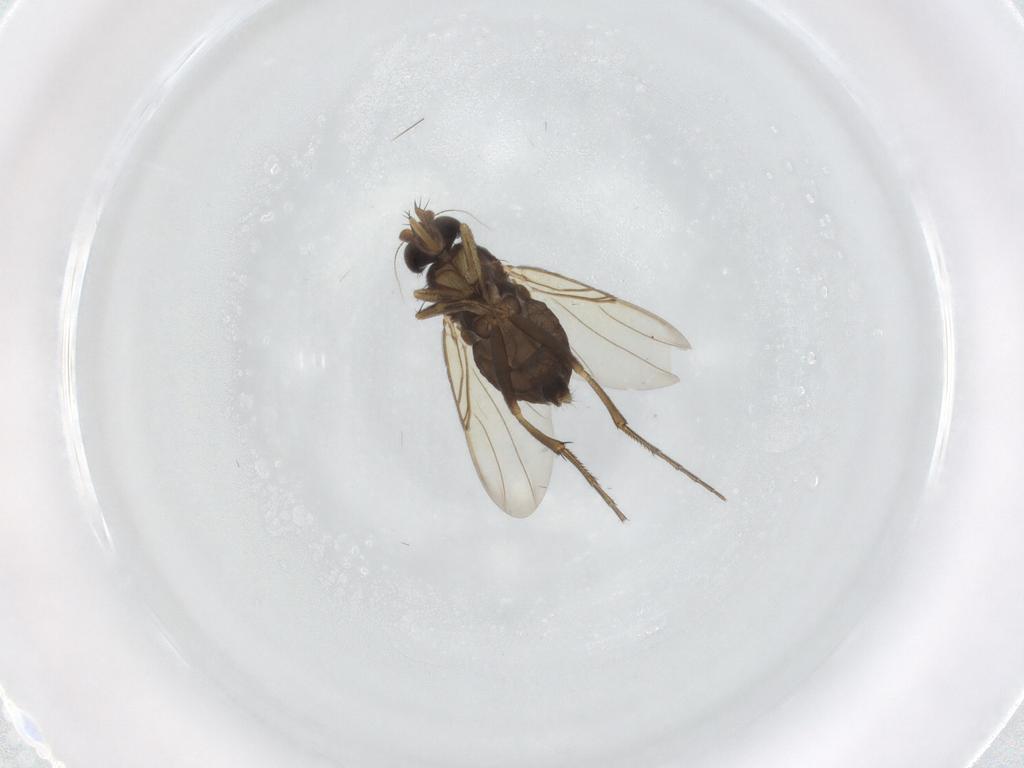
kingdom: Animalia
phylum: Arthropoda
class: Insecta
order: Diptera
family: Phoridae
